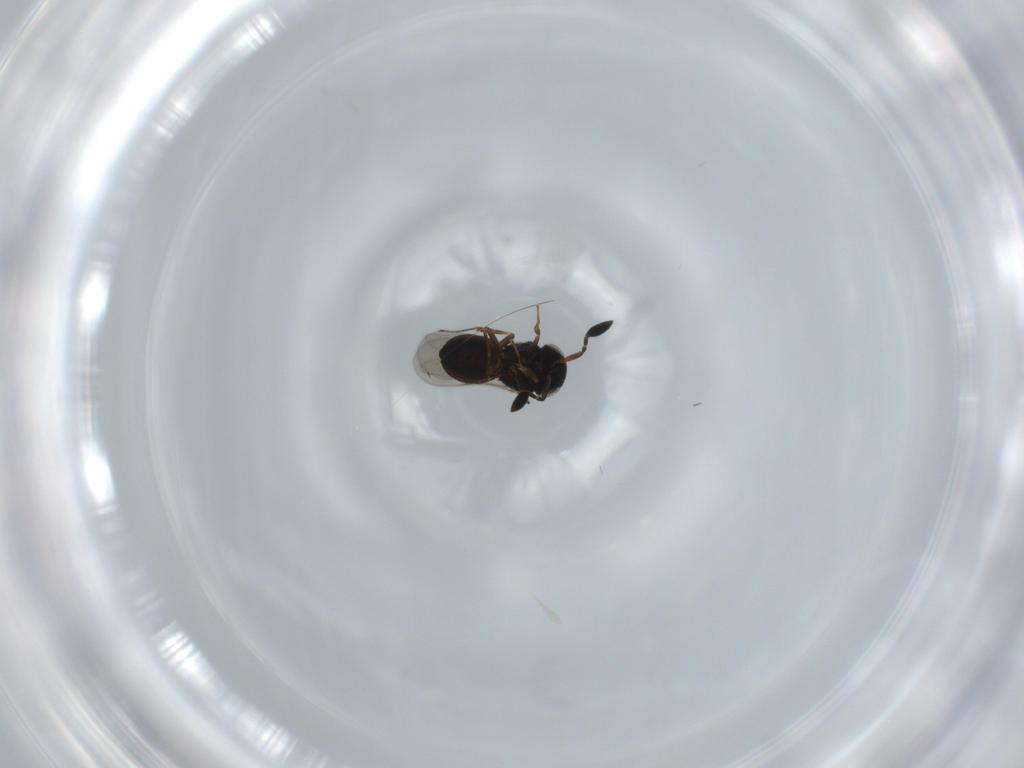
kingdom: Animalia
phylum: Arthropoda
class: Insecta
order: Hymenoptera
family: Scelionidae
